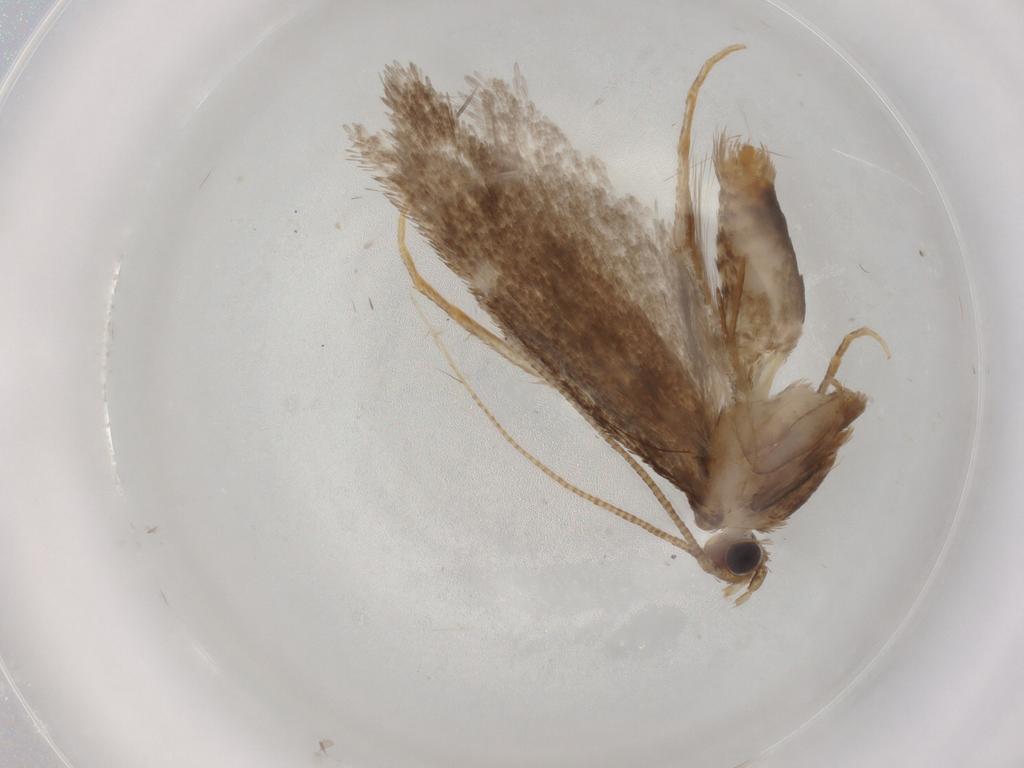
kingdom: Animalia
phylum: Arthropoda
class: Insecta
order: Lepidoptera
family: Tineidae
